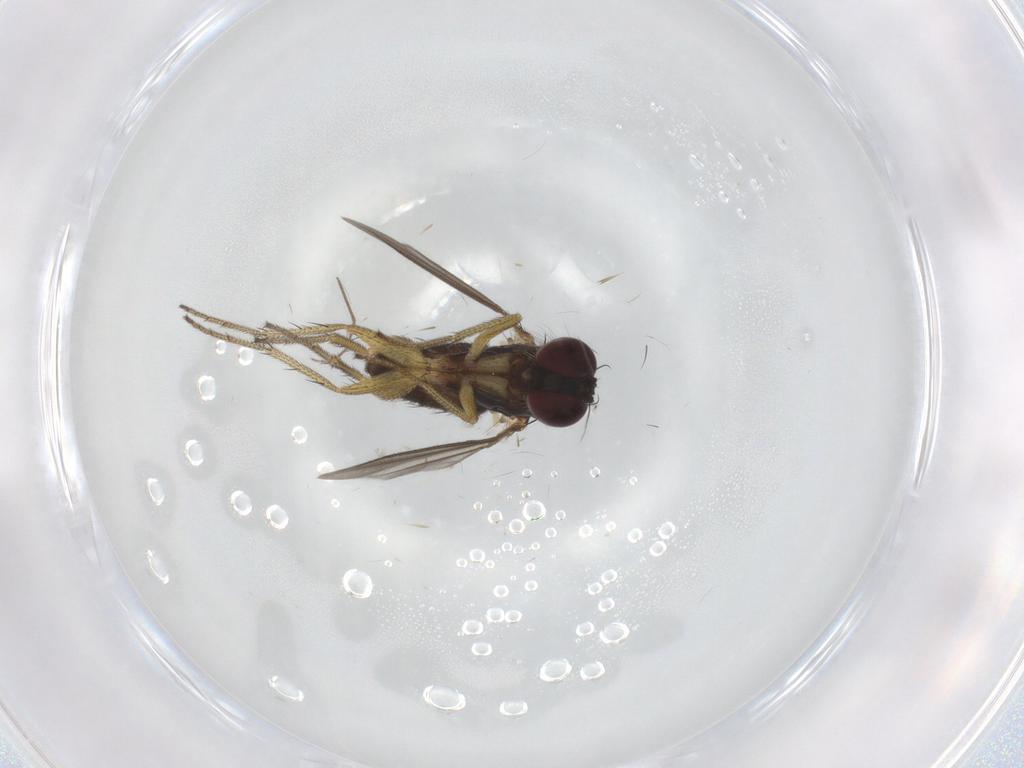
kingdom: Animalia
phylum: Arthropoda
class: Insecta
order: Diptera
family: Chironomidae
